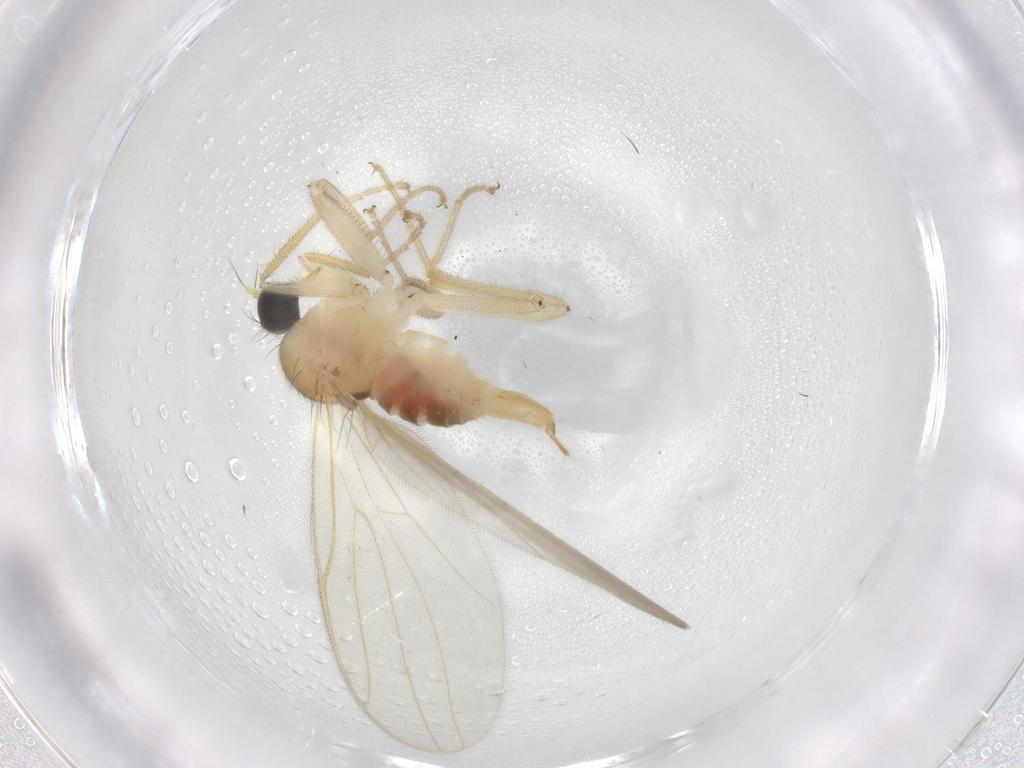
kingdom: Animalia
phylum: Arthropoda
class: Insecta
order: Diptera
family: Hybotidae
